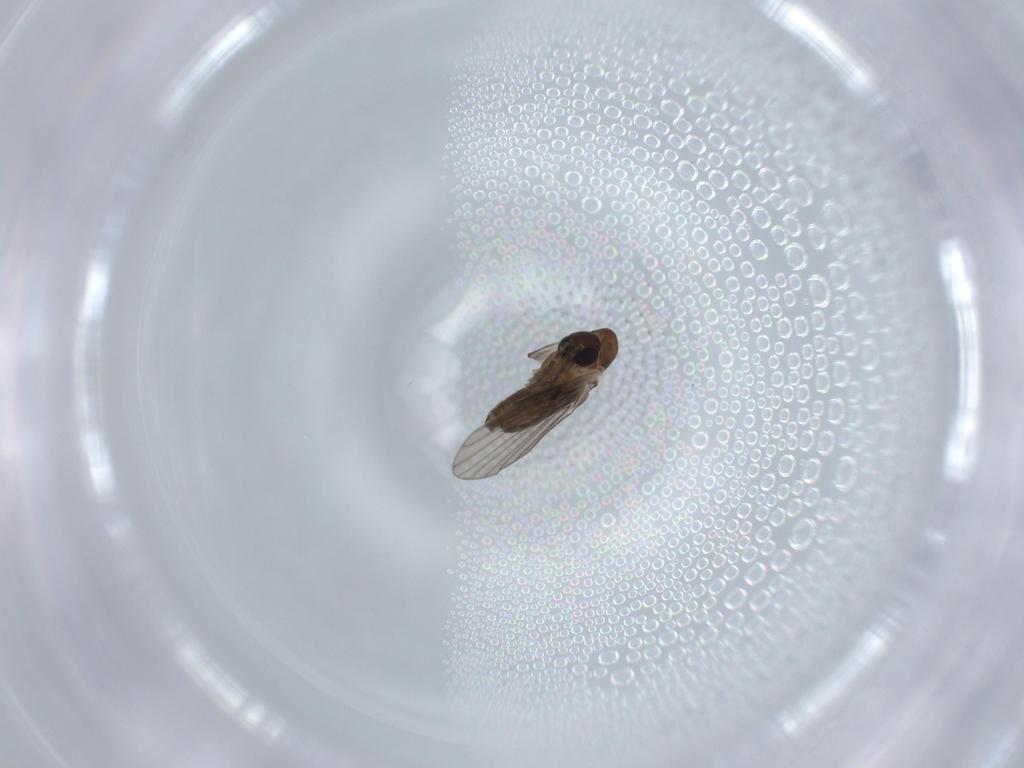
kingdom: Animalia
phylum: Arthropoda
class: Insecta
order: Diptera
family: Psychodidae
